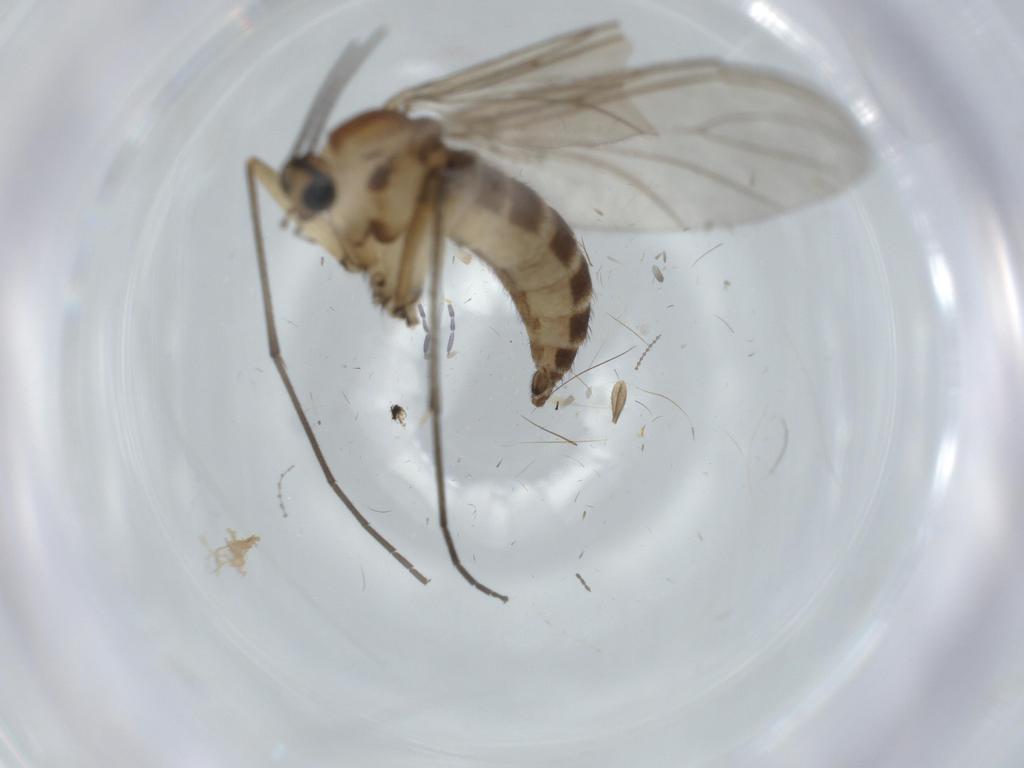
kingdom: Animalia
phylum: Arthropoda
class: Insecta
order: Diptera
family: Sciaridae
